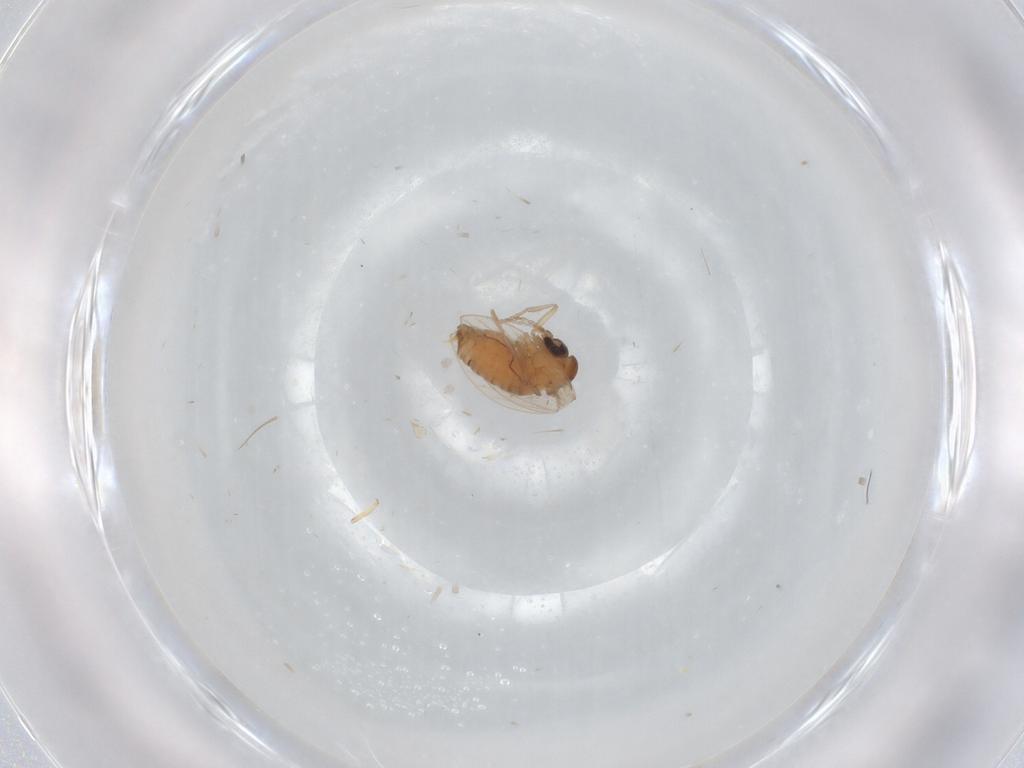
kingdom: Animalia
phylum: Arthropoda
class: Insecta
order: Diptera
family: Psychodidae
